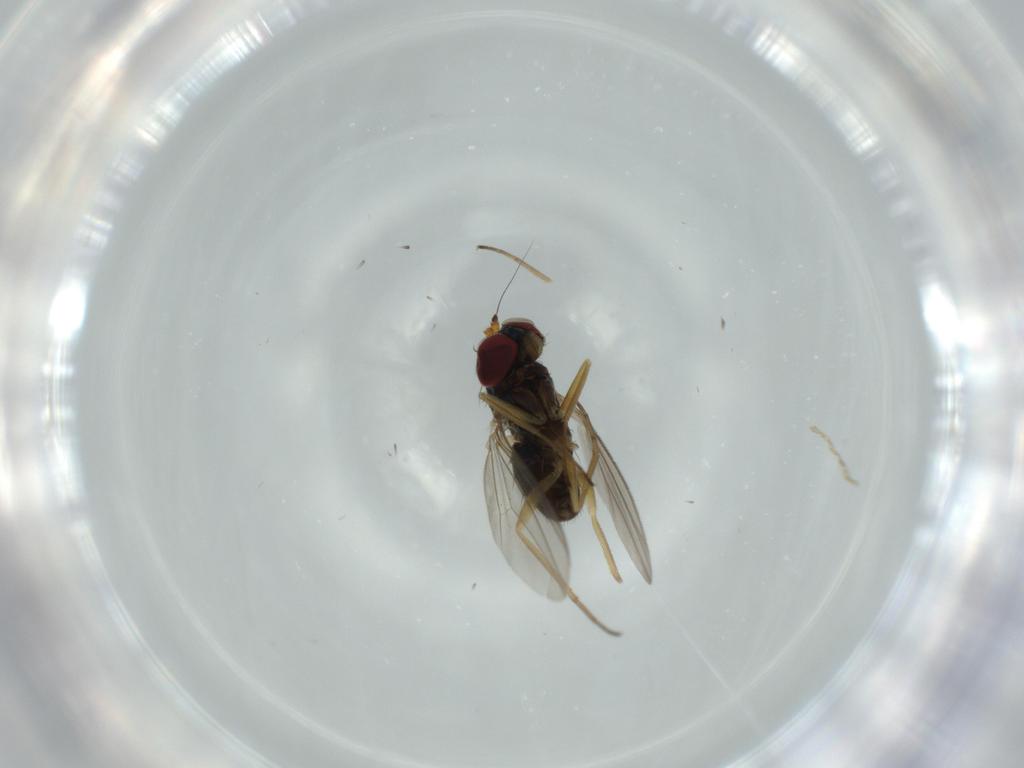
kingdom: Animalia
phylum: Arthropoda
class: Insecta
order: Diptera
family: Dolichopodidae
